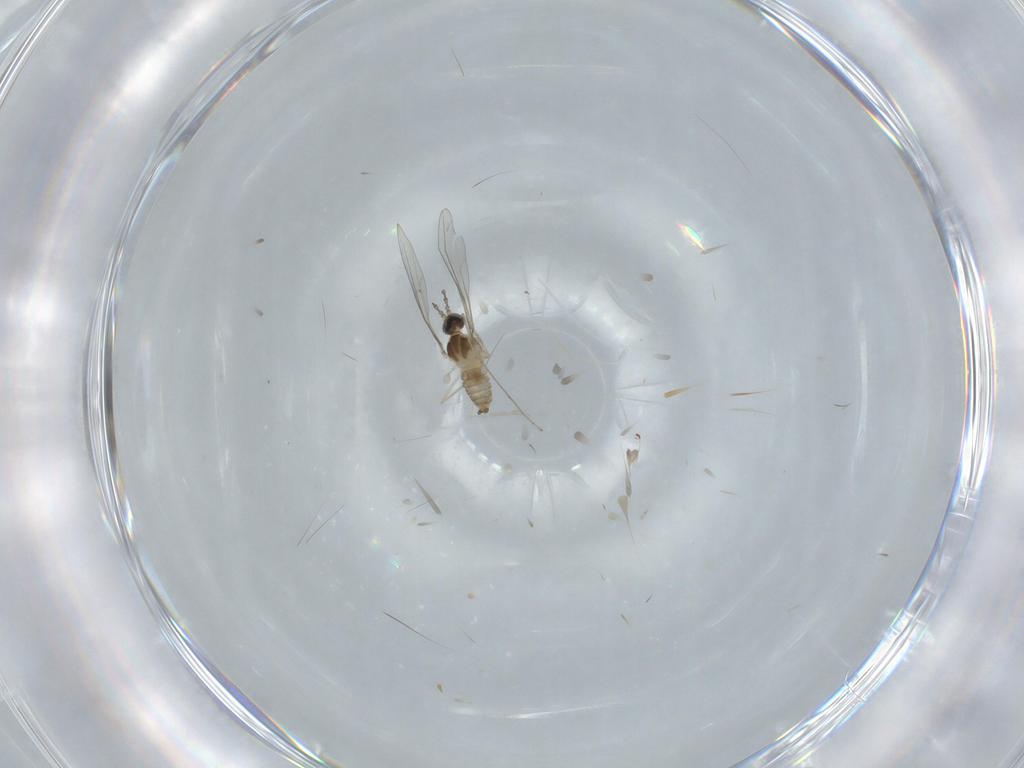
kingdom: Animalia
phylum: Arthropoda
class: Insecta
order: Diptera
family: Cecidomyiidae
